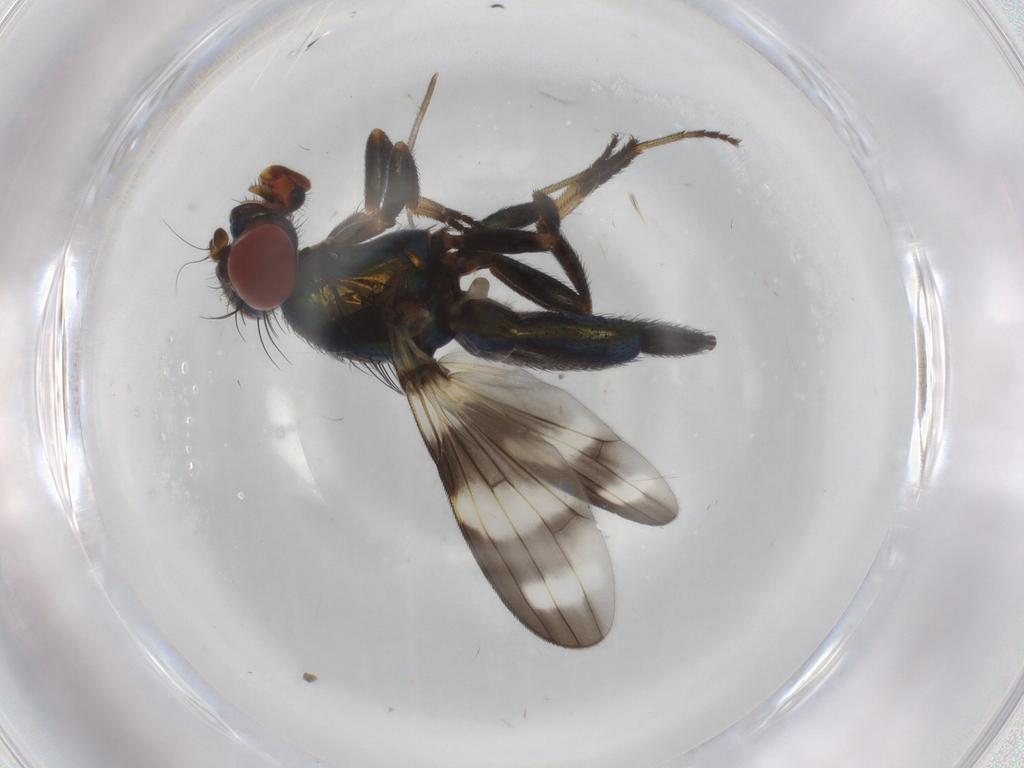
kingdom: Animalia
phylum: Arthropoda
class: Insecta
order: Diptera
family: Ulidiidae
